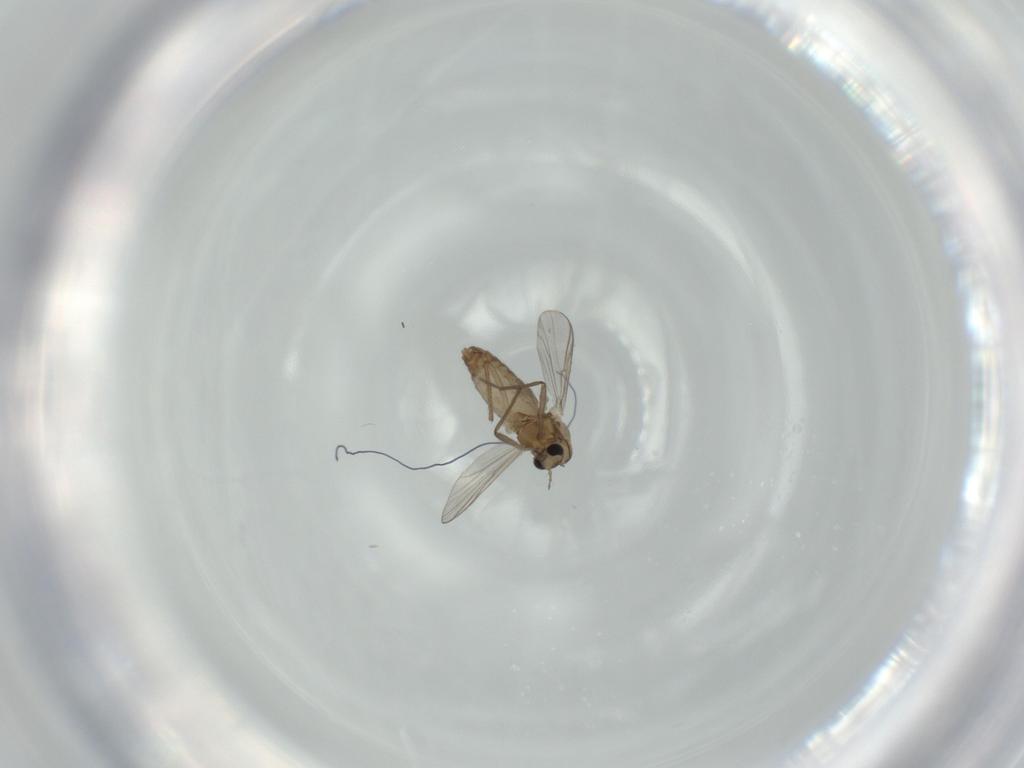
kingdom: Animalia
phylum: Arthropoda
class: Insecta
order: Diptera
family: Chironomidae
